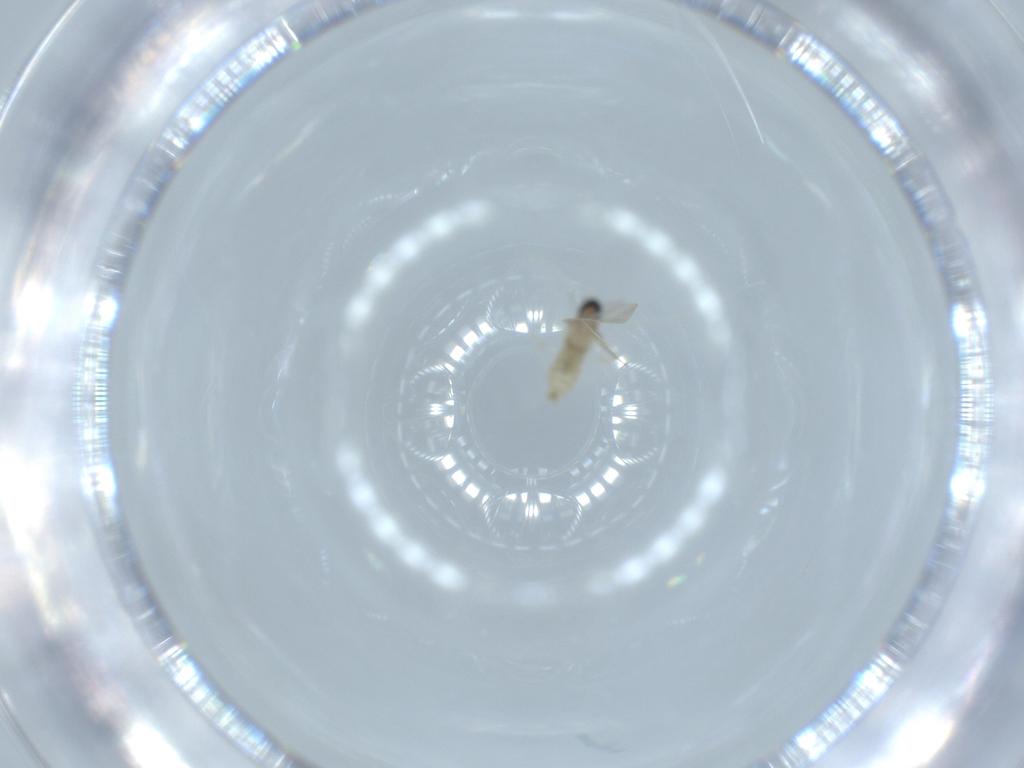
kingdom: Animalia
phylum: Arthropoda
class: Insecta
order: Diptera
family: Cecidomyiidae
